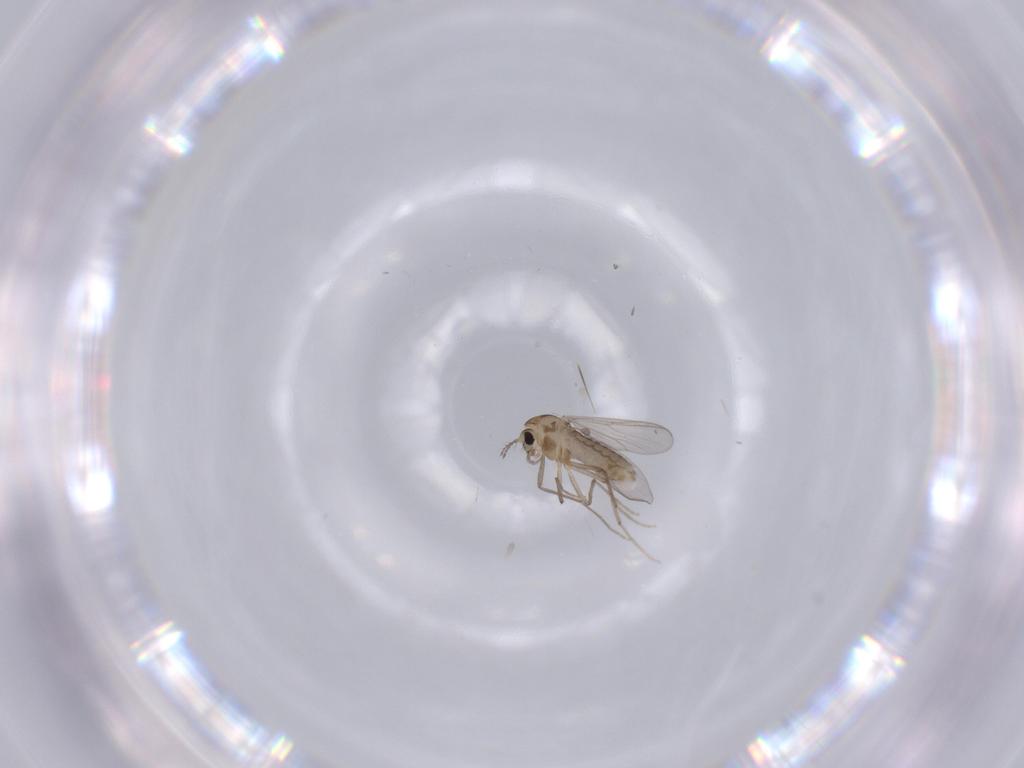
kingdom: Animalia
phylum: Arthropoda
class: Insecta
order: Diptera
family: Chironomidae
